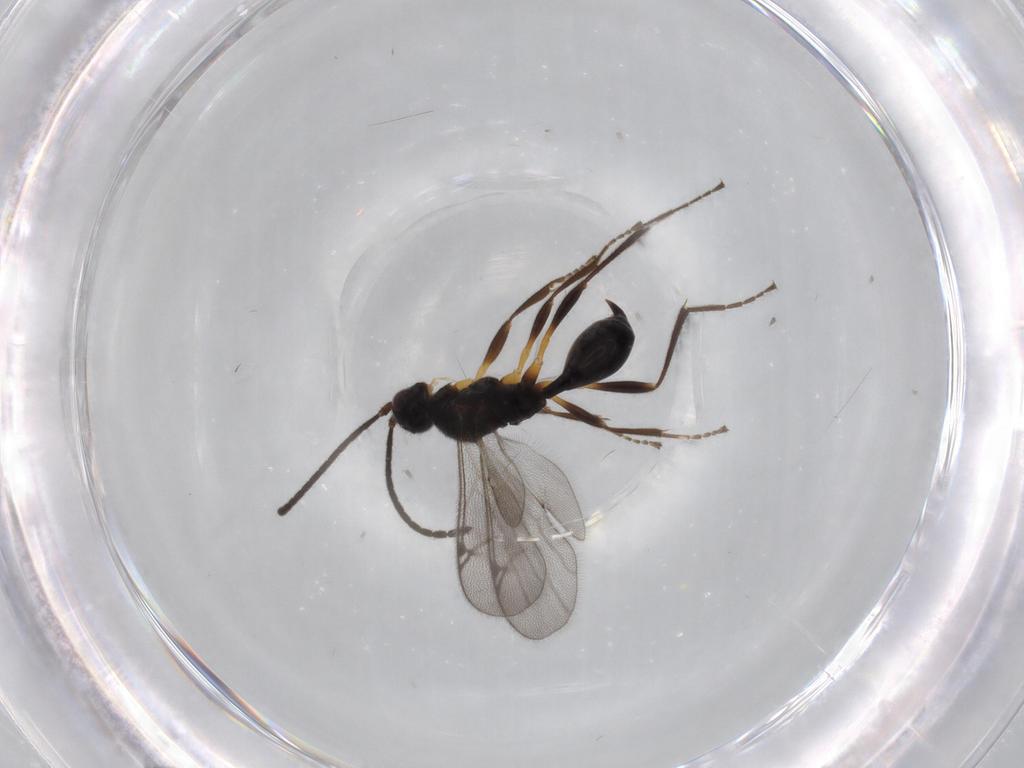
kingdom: Animalia
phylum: Arthropoda
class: Insecta
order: Hymenoptera
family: Proctotrupidae
